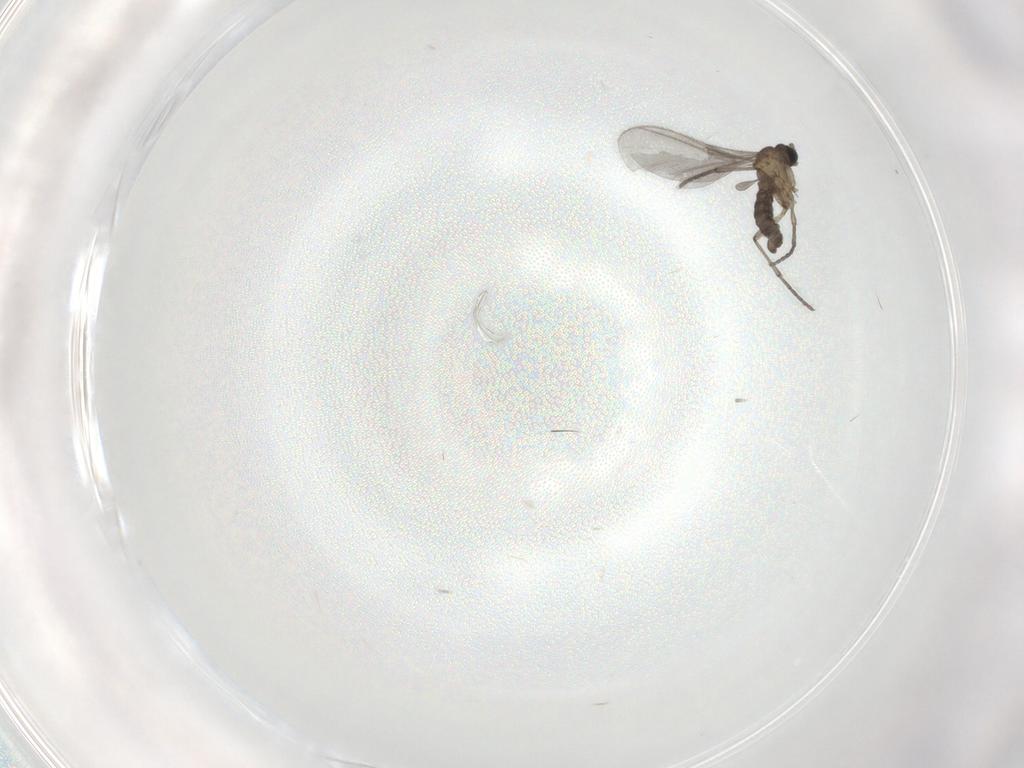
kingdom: Animalia
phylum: Arthropoda
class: Insecta
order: Diptera
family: Sciaridae
